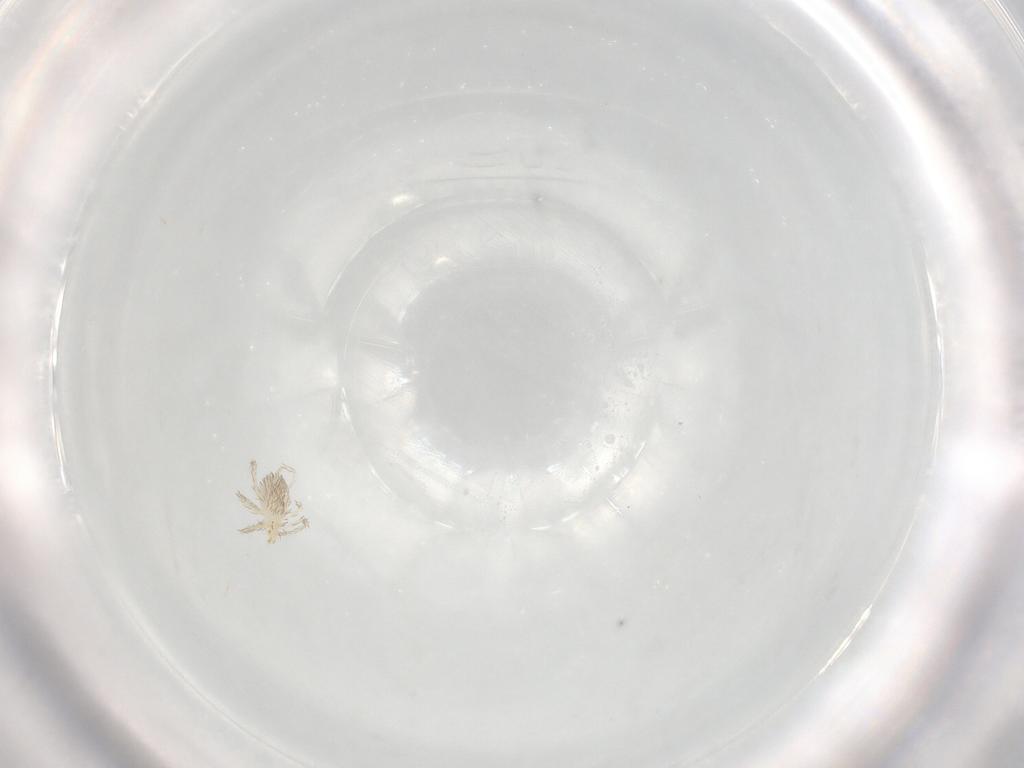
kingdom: Animalia
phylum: Arthropoda
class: Arachnida
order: Trombidiformes
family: Erythraeidae
